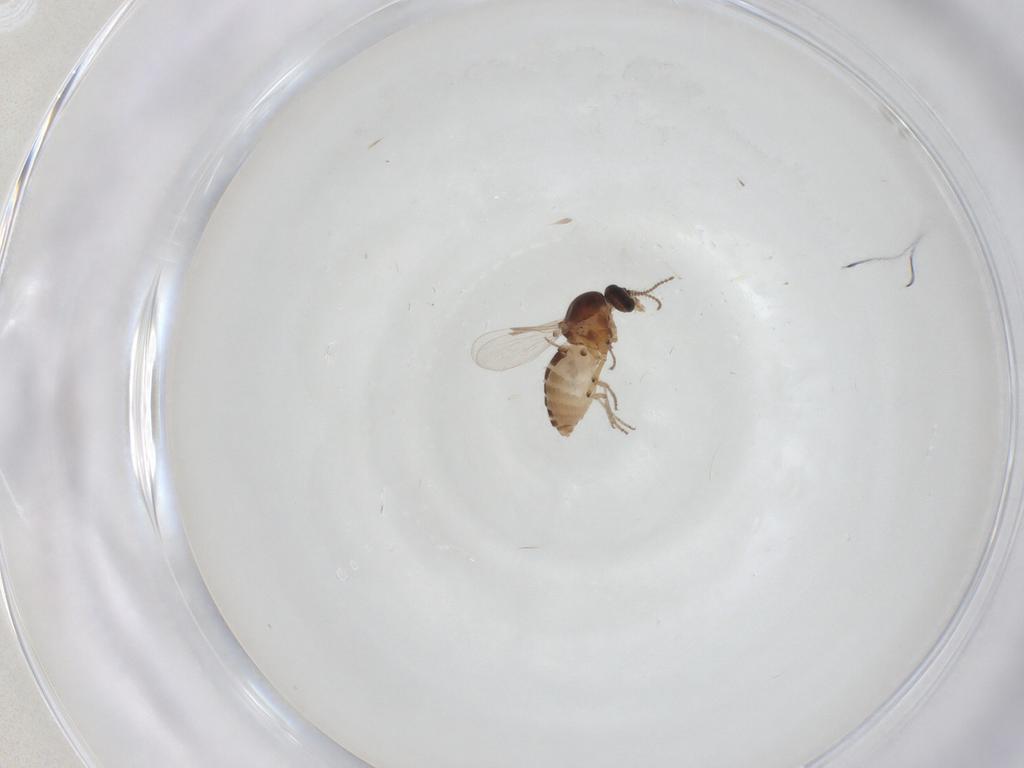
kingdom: Animalia
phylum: Arthropoda
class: Insecta
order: Diptera
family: Ceratopogonidae
